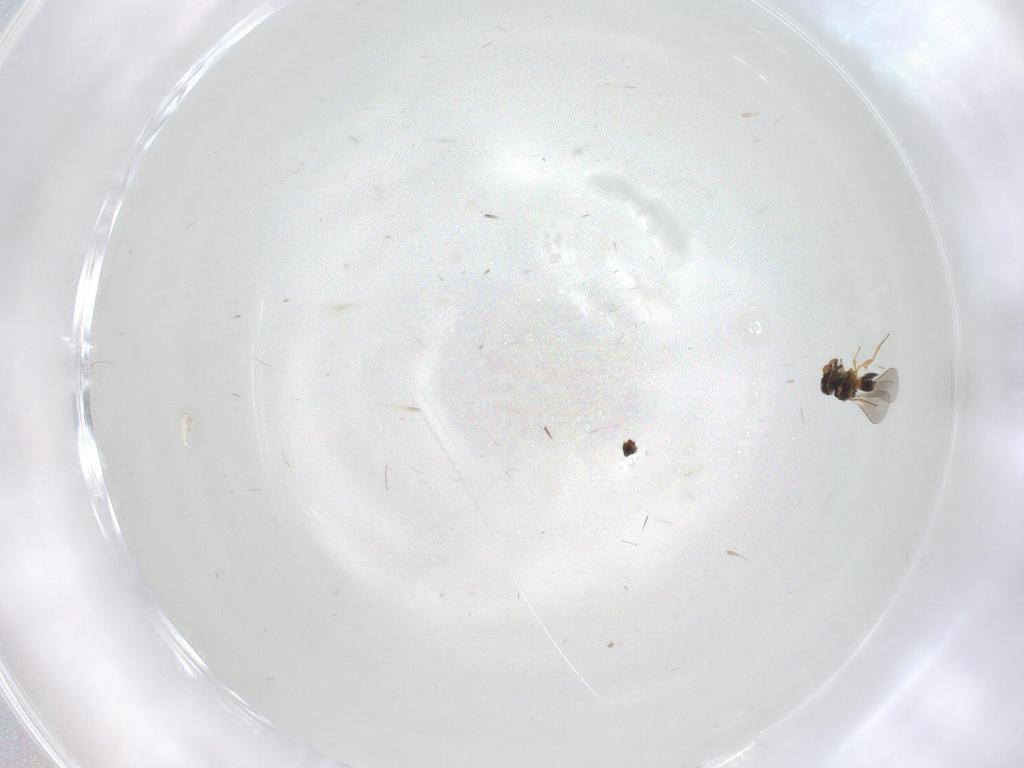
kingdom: Animalia
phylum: Arthropoda
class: Insecta
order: Hymenoptera
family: Platygastridae
